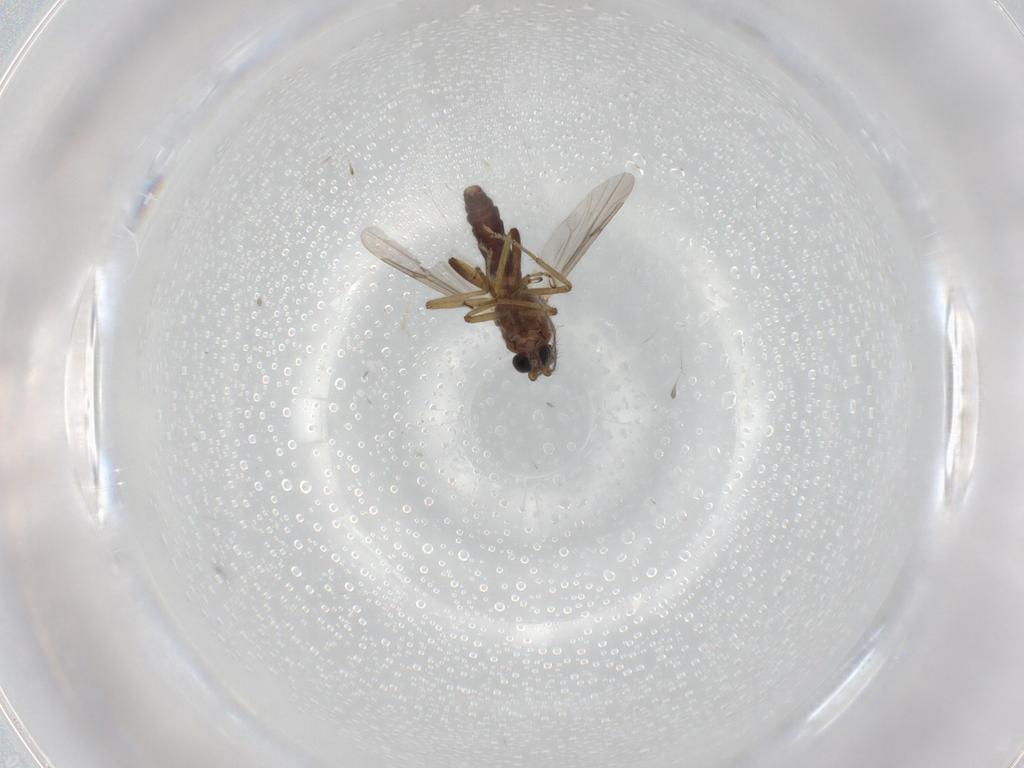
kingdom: Animalia
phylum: Arthropoda
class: Insecta
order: Diptera
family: Ceratopogonidae
